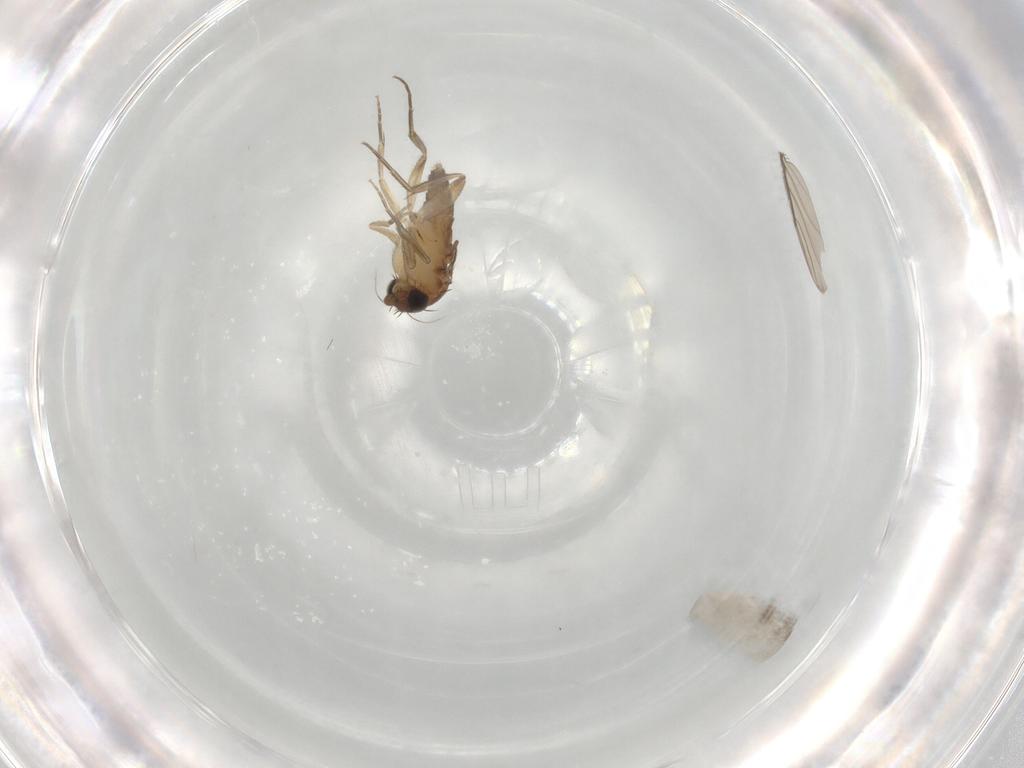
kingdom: Animalia
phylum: Arthropoda
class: Insecta
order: Diptera
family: Phoridae
